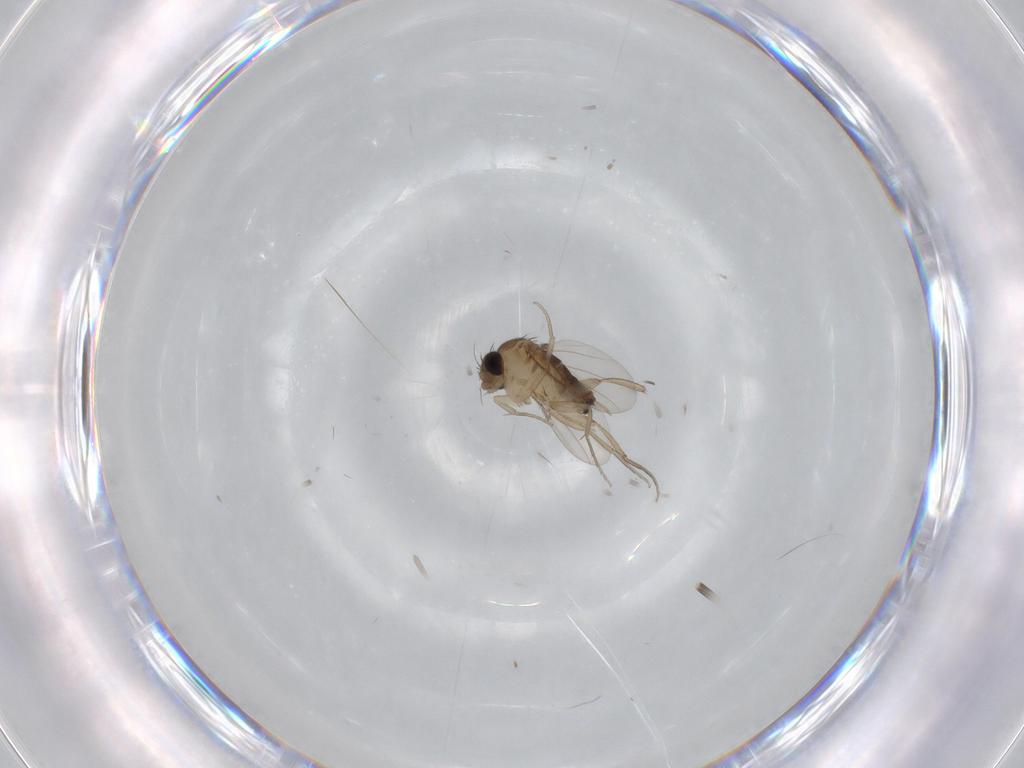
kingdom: Animalia
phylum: Arthropoda
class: Insecta
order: Diptera
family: Phoridae
